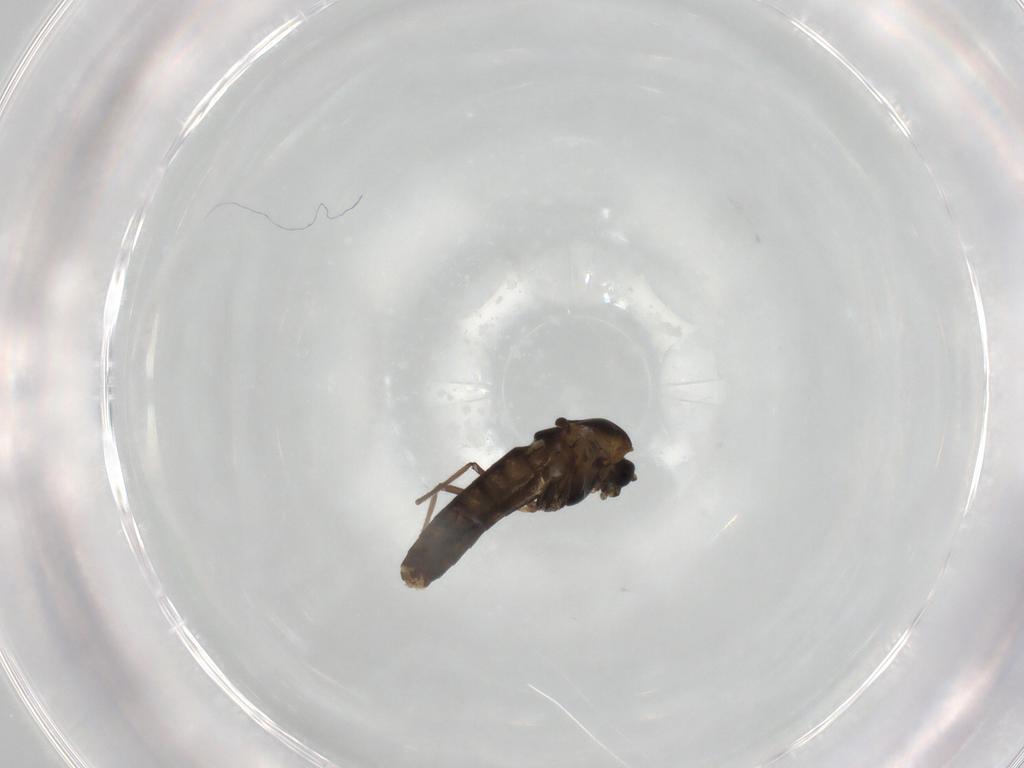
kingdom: Animalia
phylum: Arthropoda
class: Insecta
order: Diptera
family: Chironomidae
